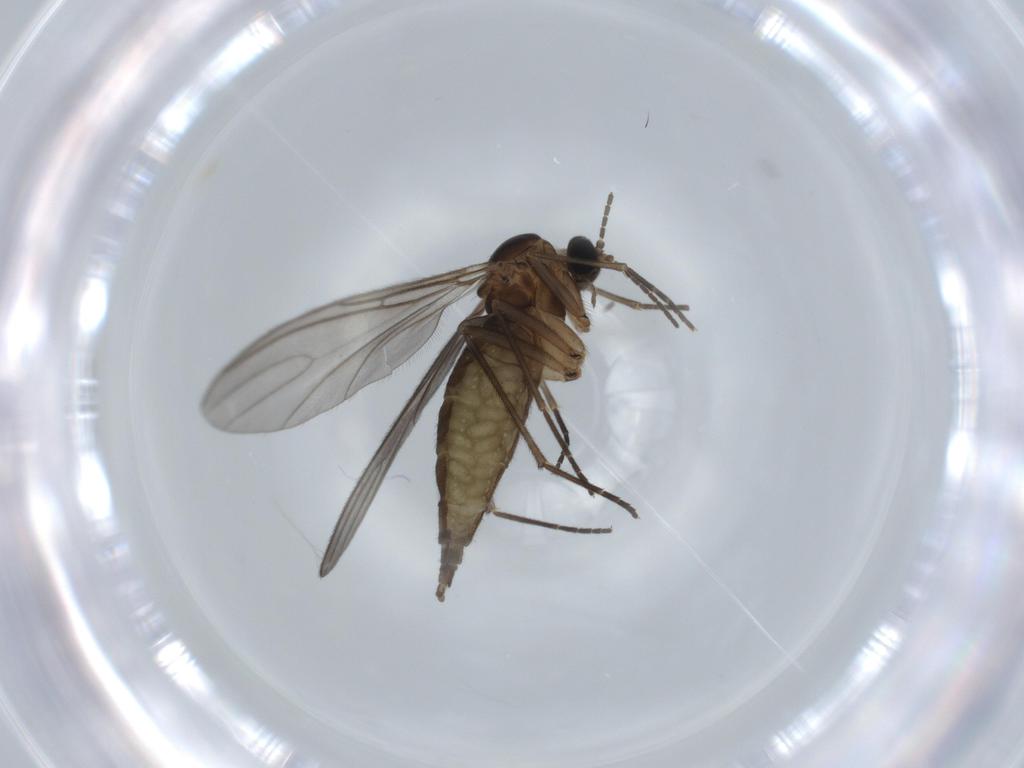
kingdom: Animalia
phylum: Arthropoda
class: Insecta
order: Diptera
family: Sciaridae
